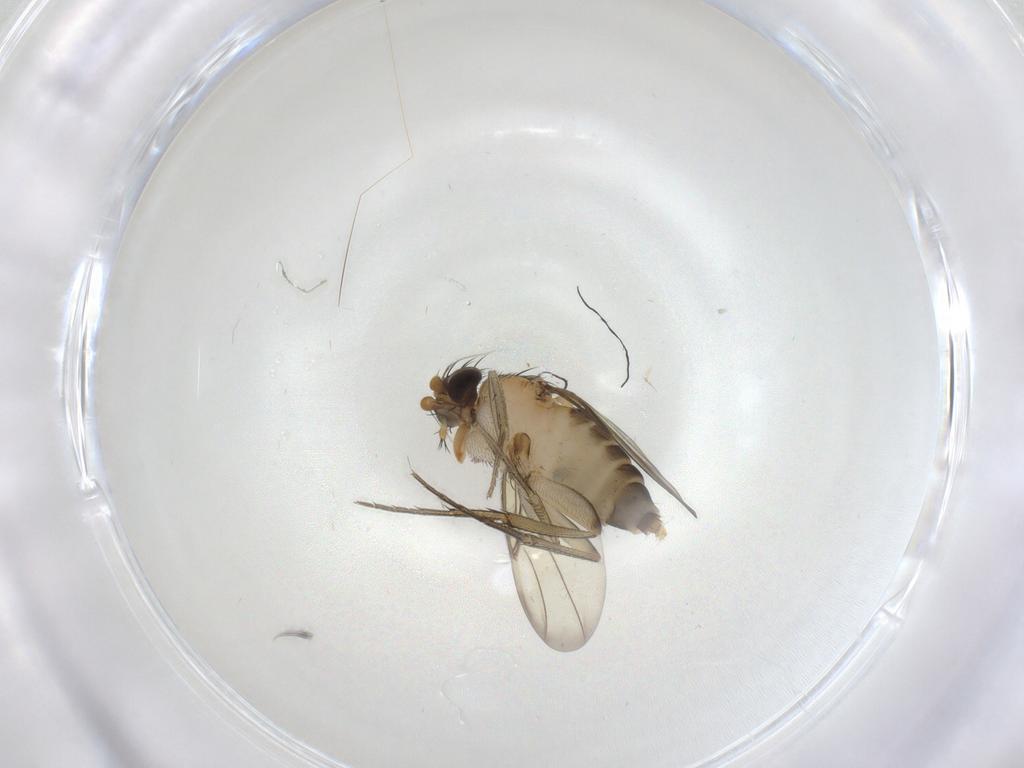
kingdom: Animalia
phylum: Arthropoda
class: Insecta
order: Diptera
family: Phoridae
